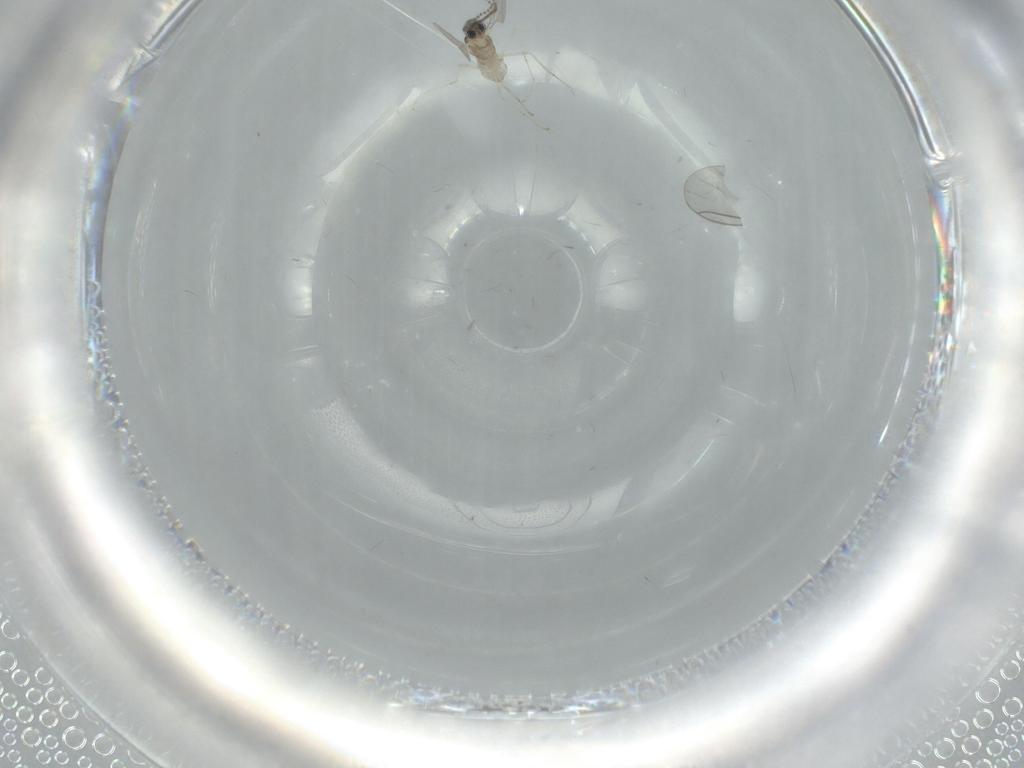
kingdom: Animalia
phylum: Arthropoda
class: Insecta
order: Diptera
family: Cecidomyiidae
